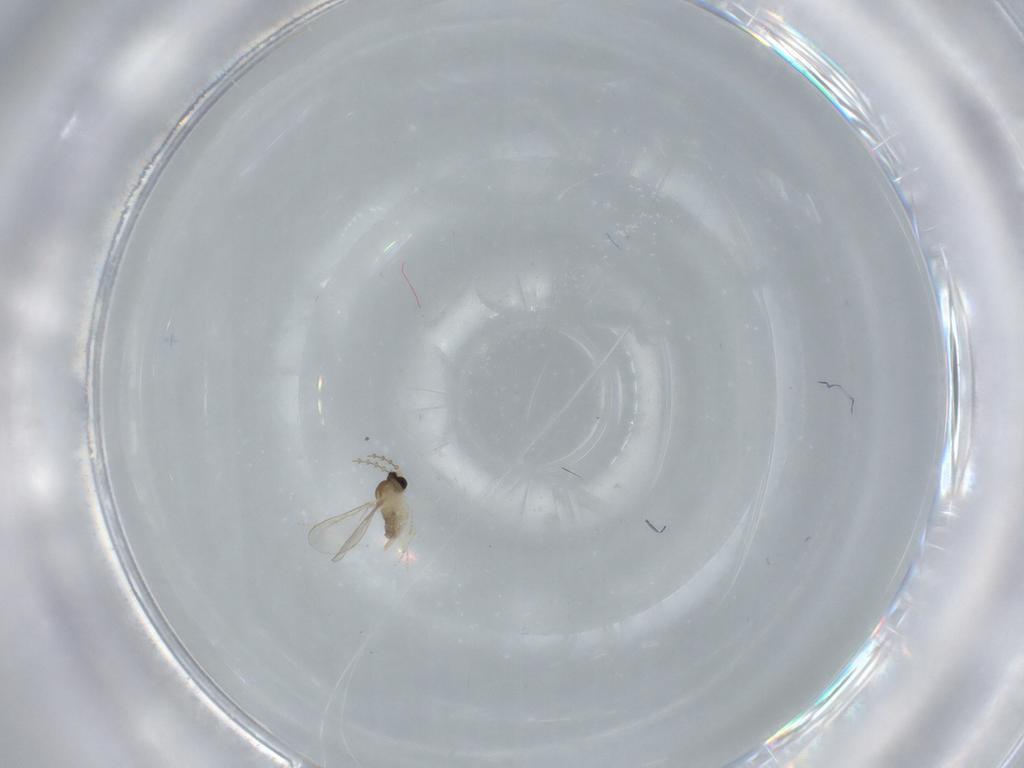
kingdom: Animalia
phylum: Arthropoda
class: Insecta
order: Diptera
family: Cecidomyiidae
